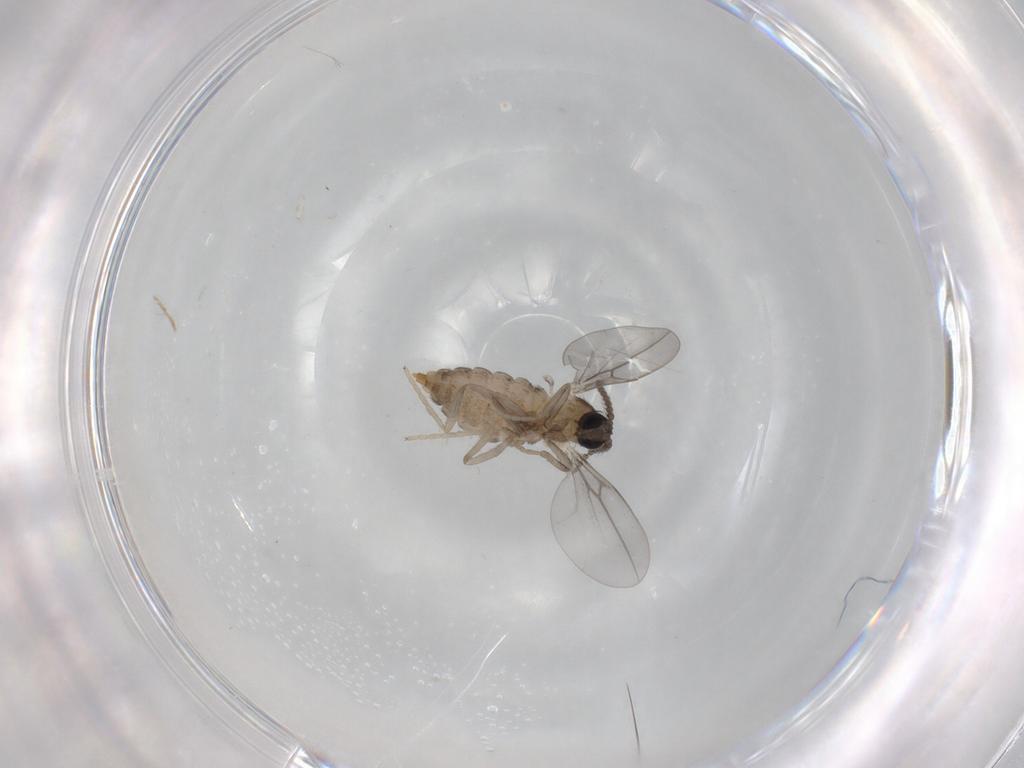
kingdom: Animalia
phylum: Arthropoda
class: Insecta
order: Diptera
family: Cecidomyiidae
